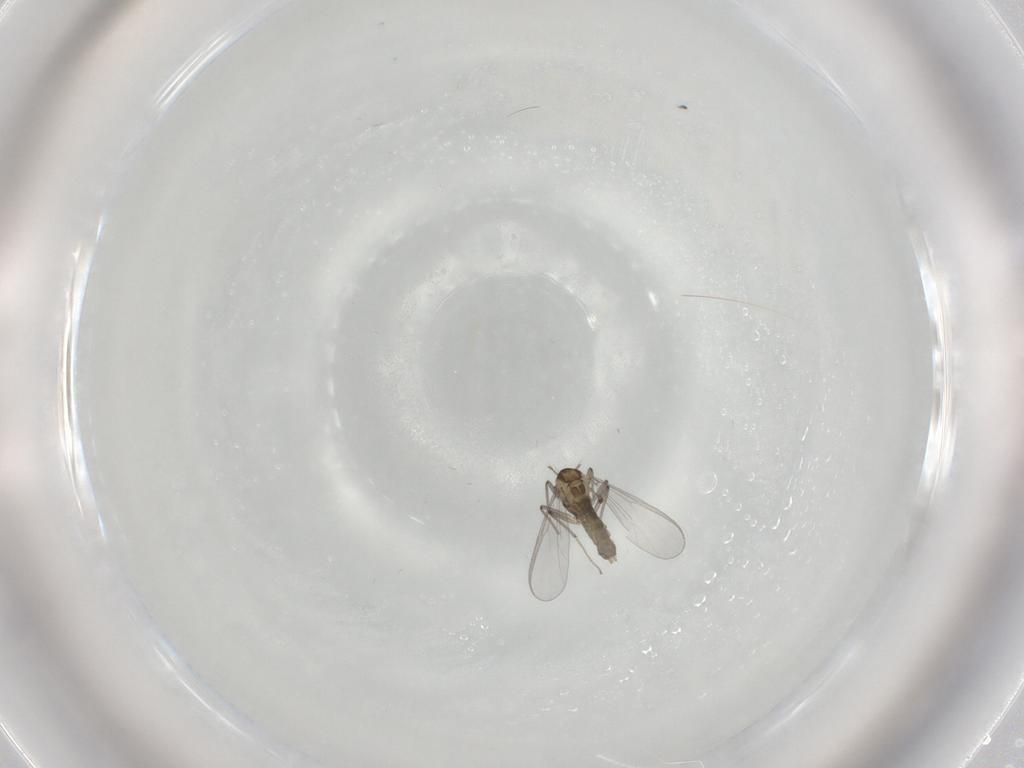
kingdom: Animalia
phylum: Arthropoda
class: Insecta
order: Diptera
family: Chironomidae
